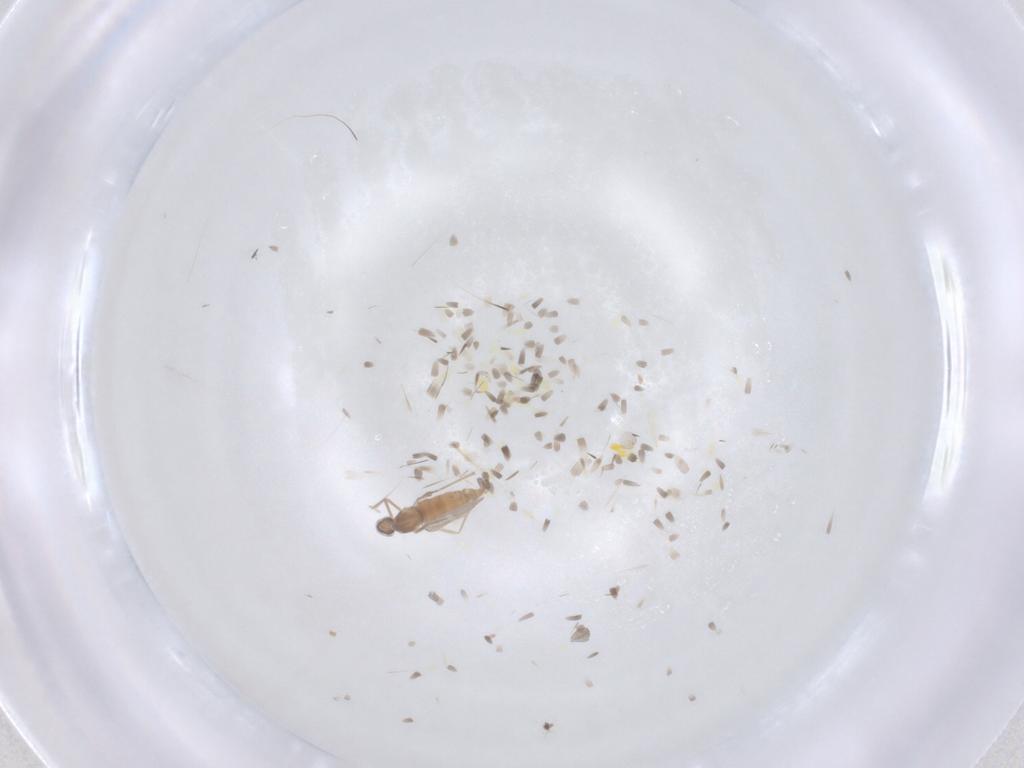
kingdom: Animalia
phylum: Arthropoda
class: Insecta
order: Diptera
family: Cecidomyiidae
